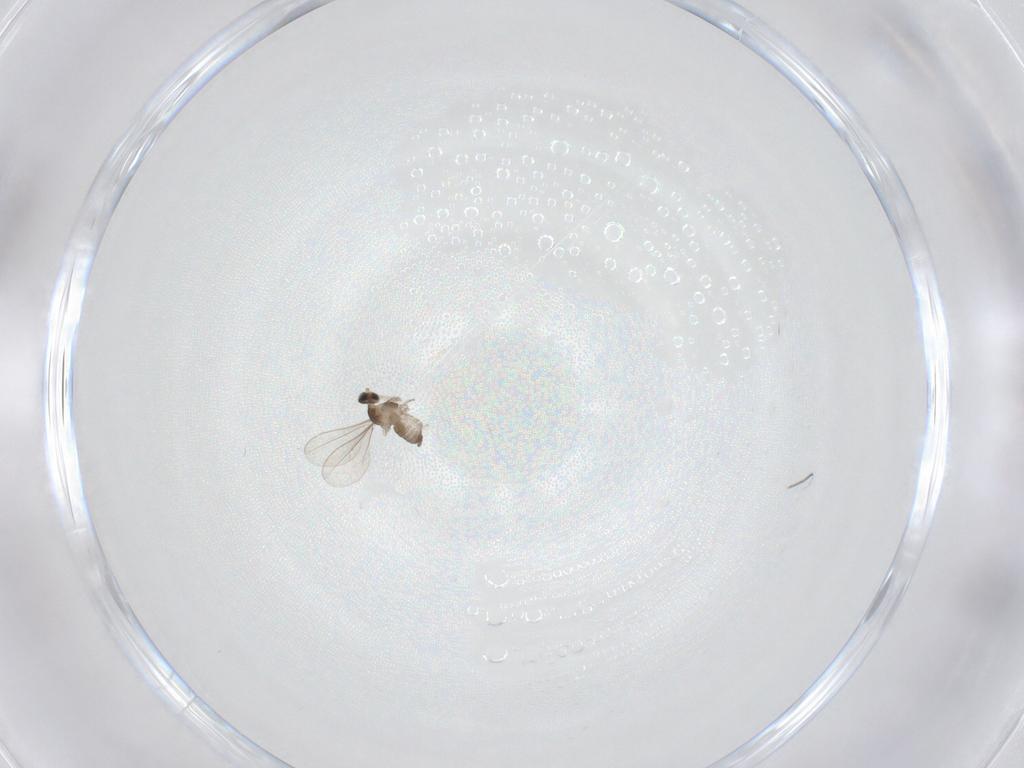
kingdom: Animalia
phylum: Arthropoda
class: Insecta
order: Diptera
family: Cecidomyiidae
